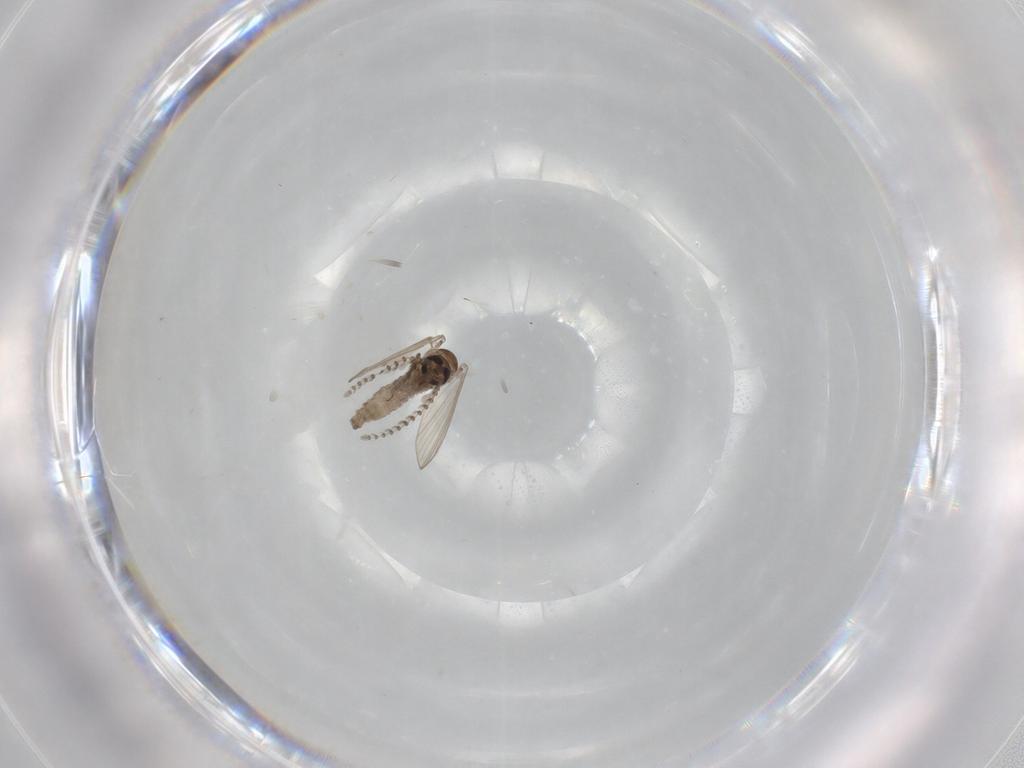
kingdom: Animalia
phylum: Arthropoda
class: Insecta
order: Diptera
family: Psychodidae
